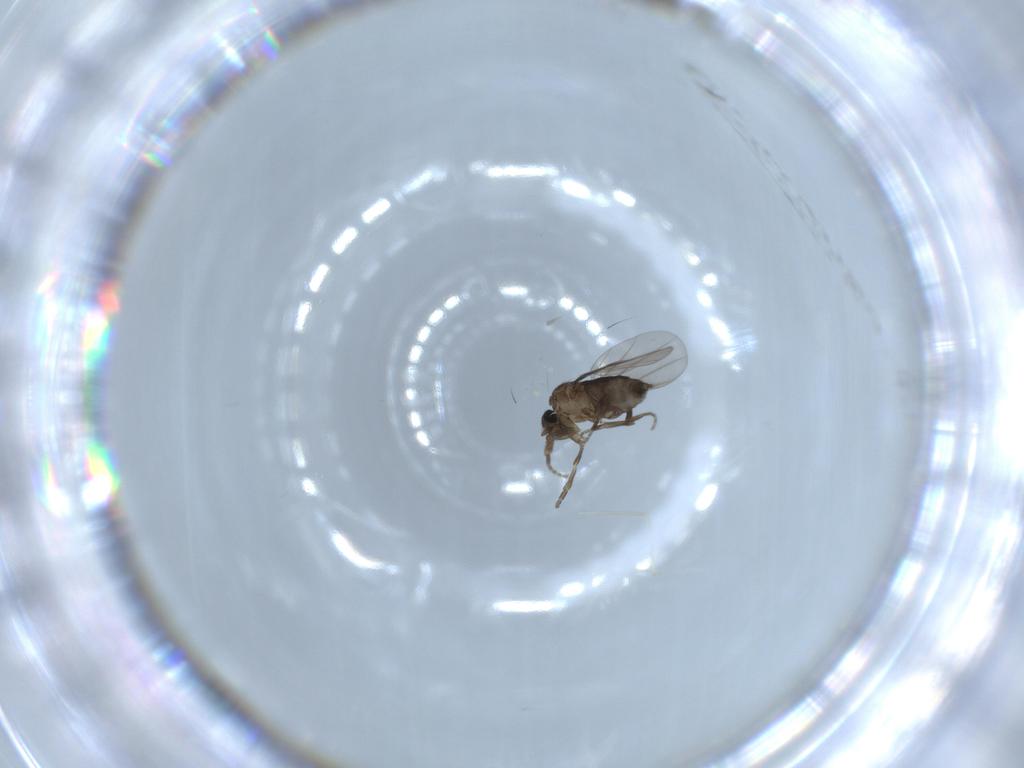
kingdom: Animalia
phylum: Arthropoda
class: Insecta
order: Diptera
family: Phoridae
